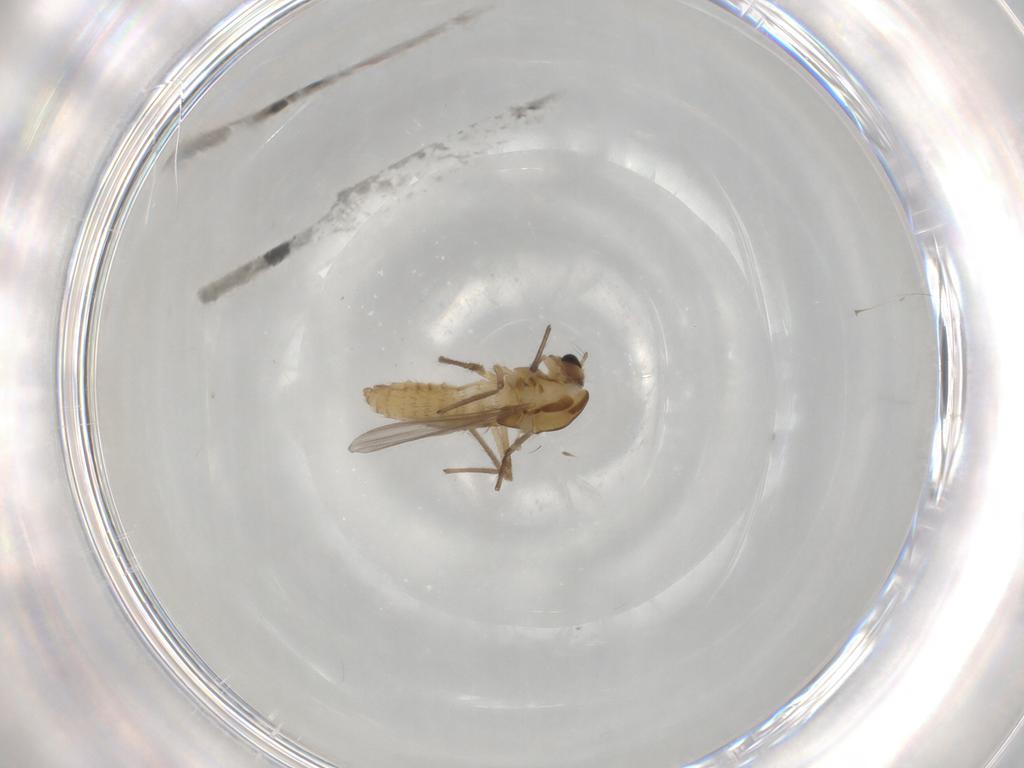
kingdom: Animalia
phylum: Arthropoda
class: Insecta
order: Diptera
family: Chironomidae
